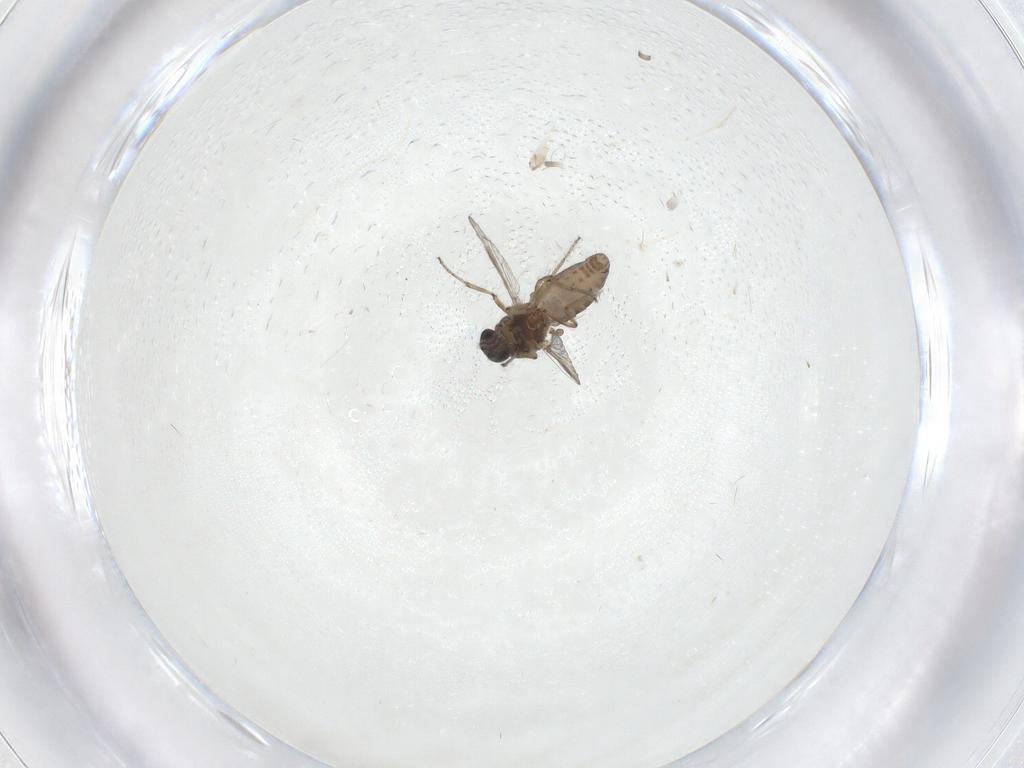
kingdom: Animalia
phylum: Arthropoda
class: Insecta
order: Diptera
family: Ceratopogonidae
